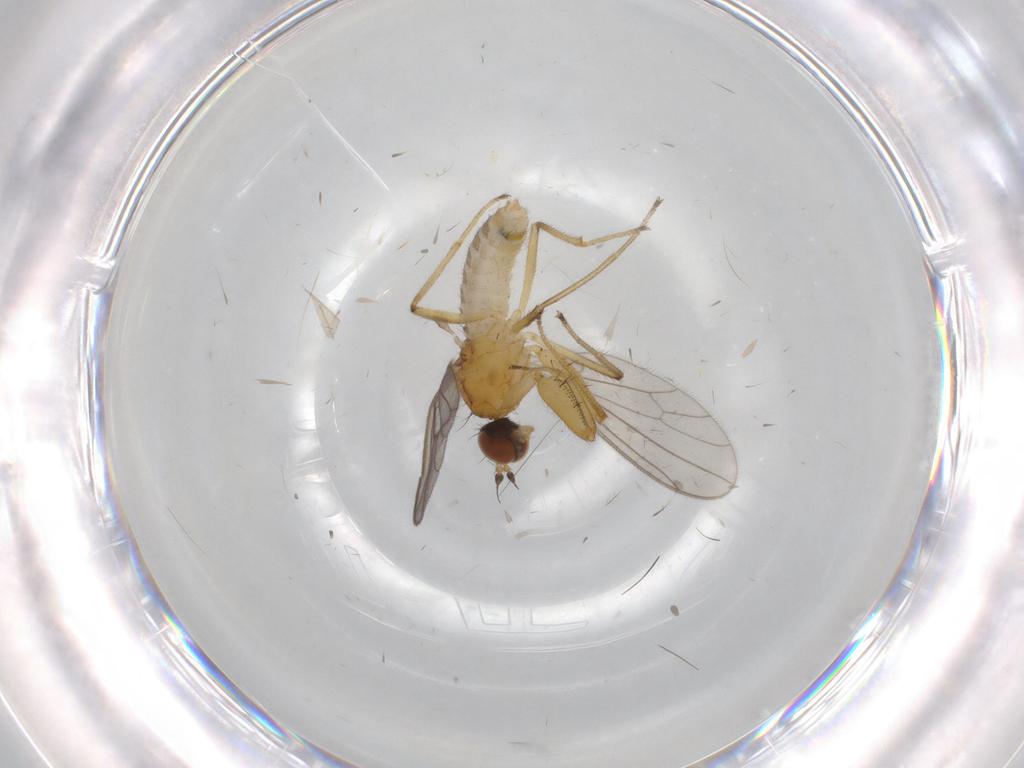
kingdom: Animalia
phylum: Arthropoda
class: Insecta
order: Diptera
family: Empididae
